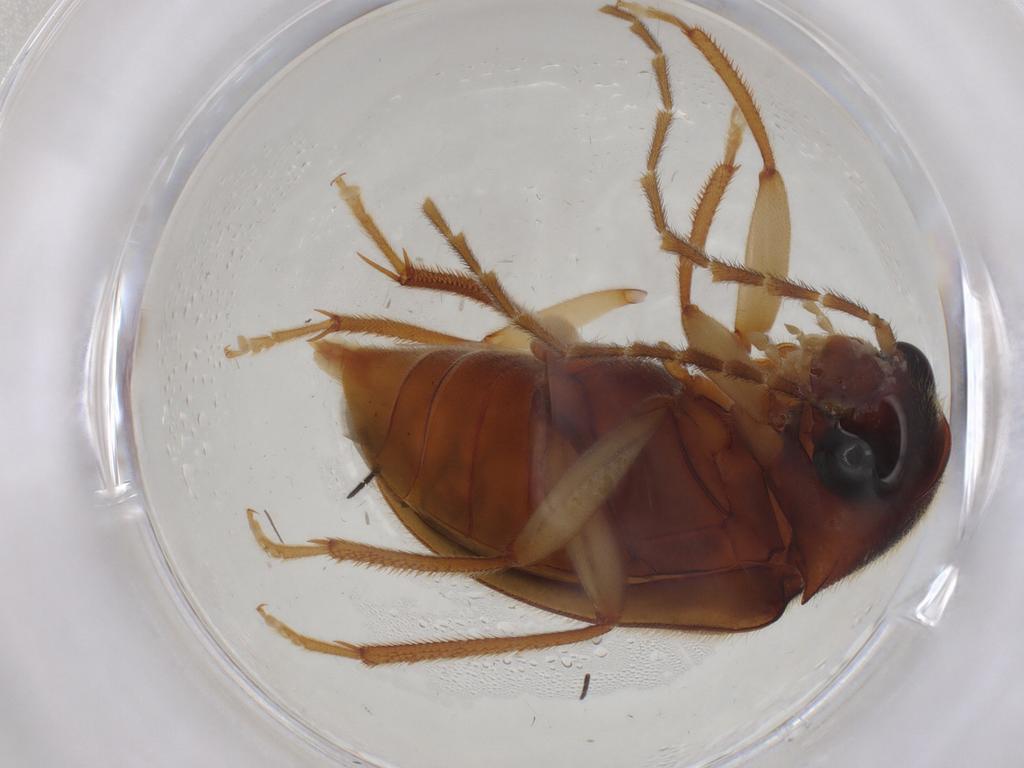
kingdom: Animalia
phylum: Arthropoda
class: Insecta
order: Coleoptera
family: Ptilodactylidae
